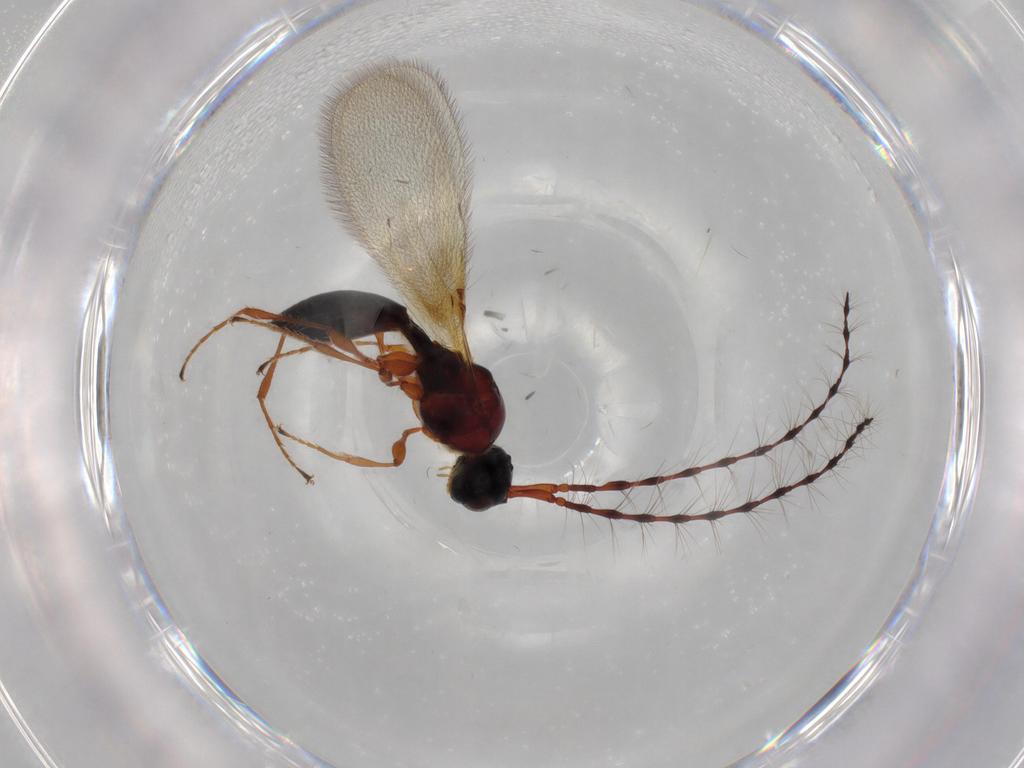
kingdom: Animalia
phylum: Arthropoda
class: Insecta
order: Hymenoptera
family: Diapriidae
